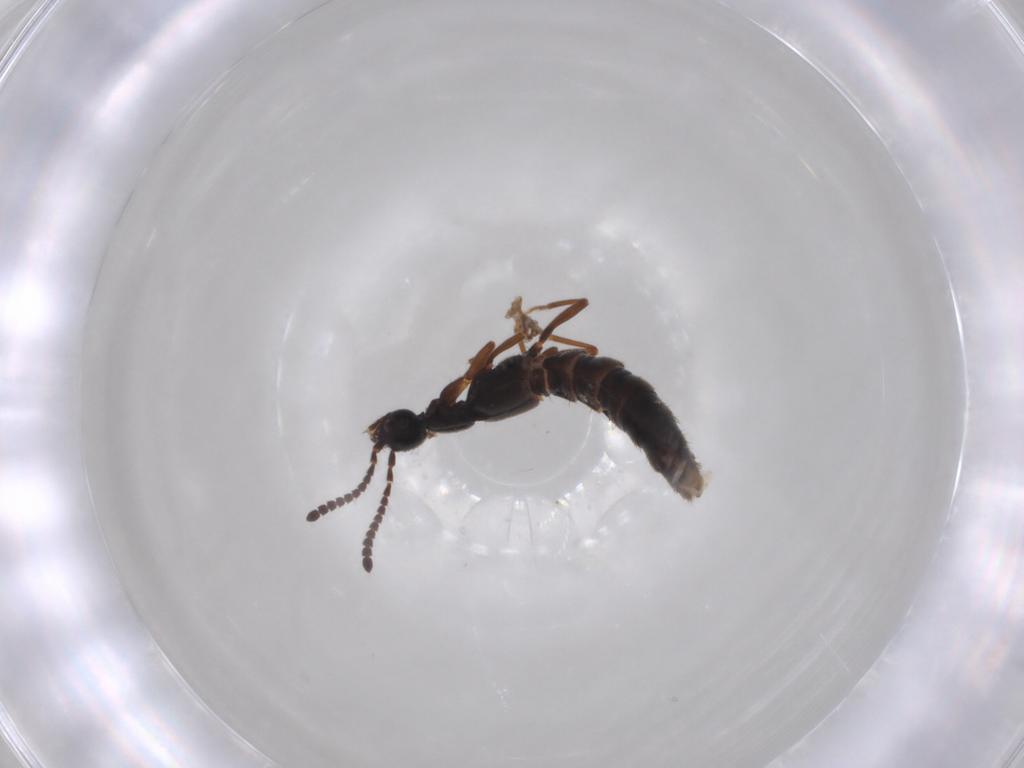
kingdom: Animalia
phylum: Arthropoda
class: Insecta
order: Coleoptera
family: Staphylinidae
